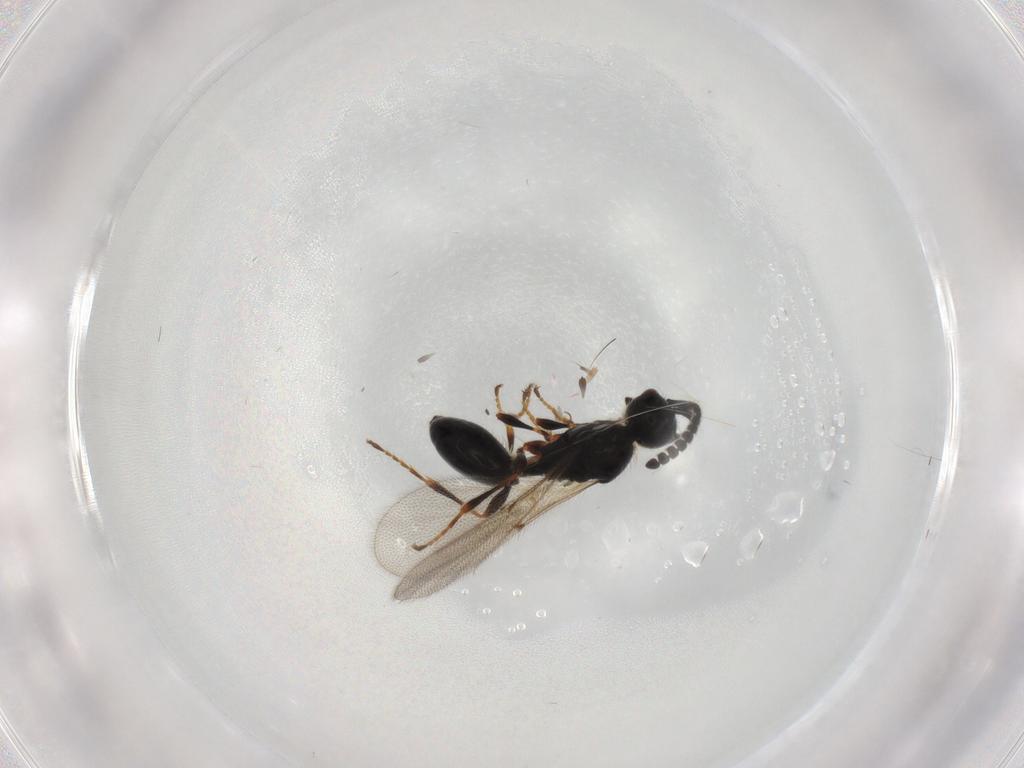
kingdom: Animalia
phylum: Arthropoda
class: Insecta
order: Hymenoptera
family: Diapriidae
